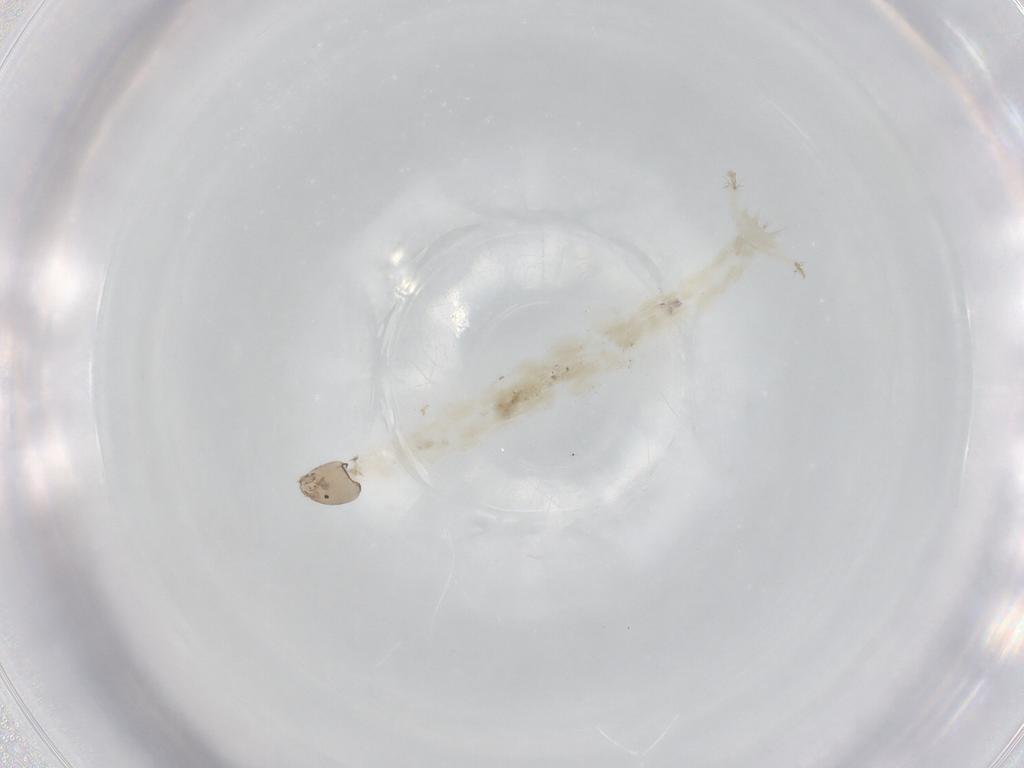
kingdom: Animalia
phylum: Arthropoda
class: Insecta
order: Diptera
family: Chironomidae
